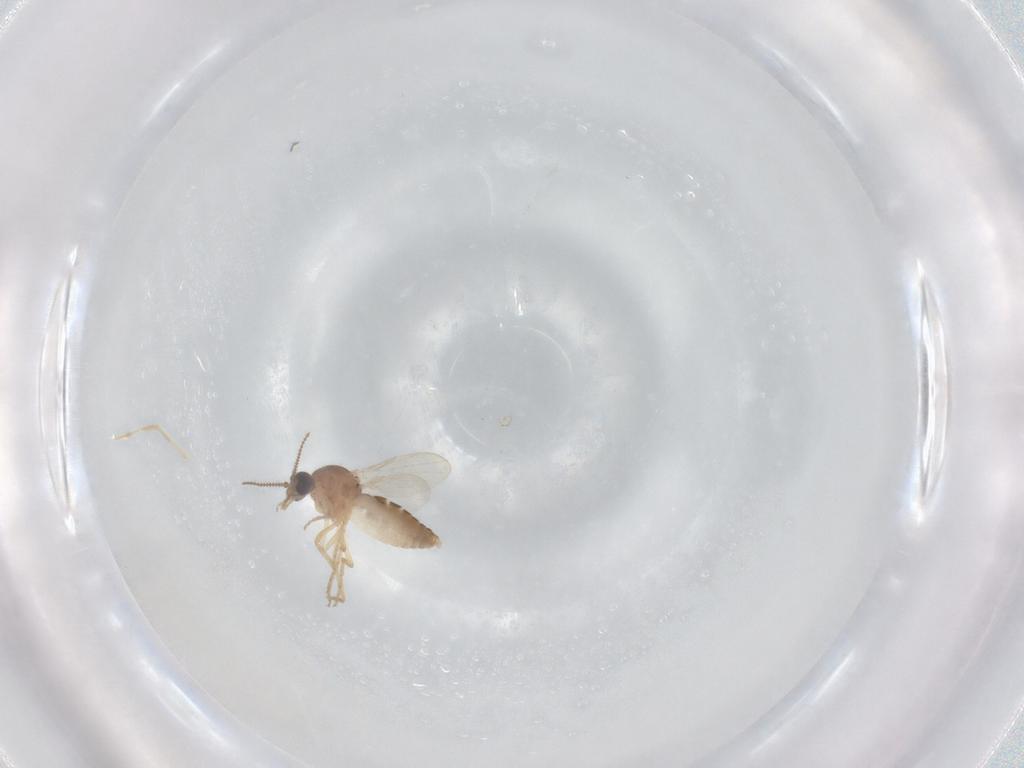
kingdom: Animalia
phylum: Arthropoda
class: Insecta
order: Diptera
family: Ceratopogonidae
